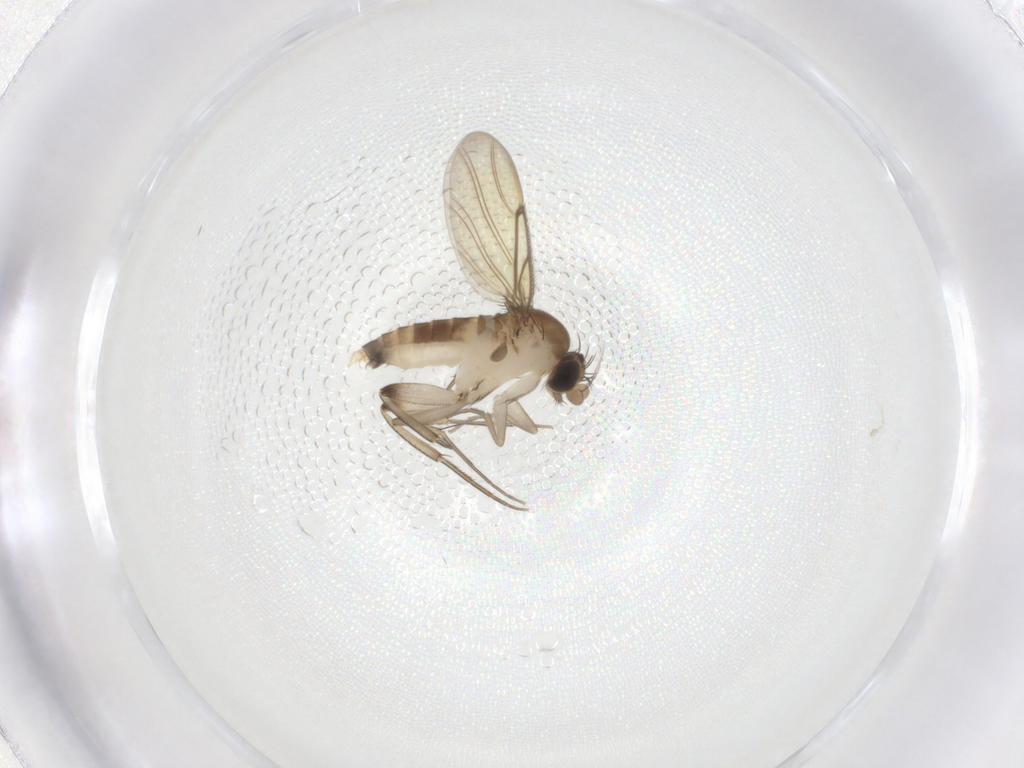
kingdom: Animalia
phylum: Arthropoda
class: Insecta
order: Diptera
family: Phoridae
